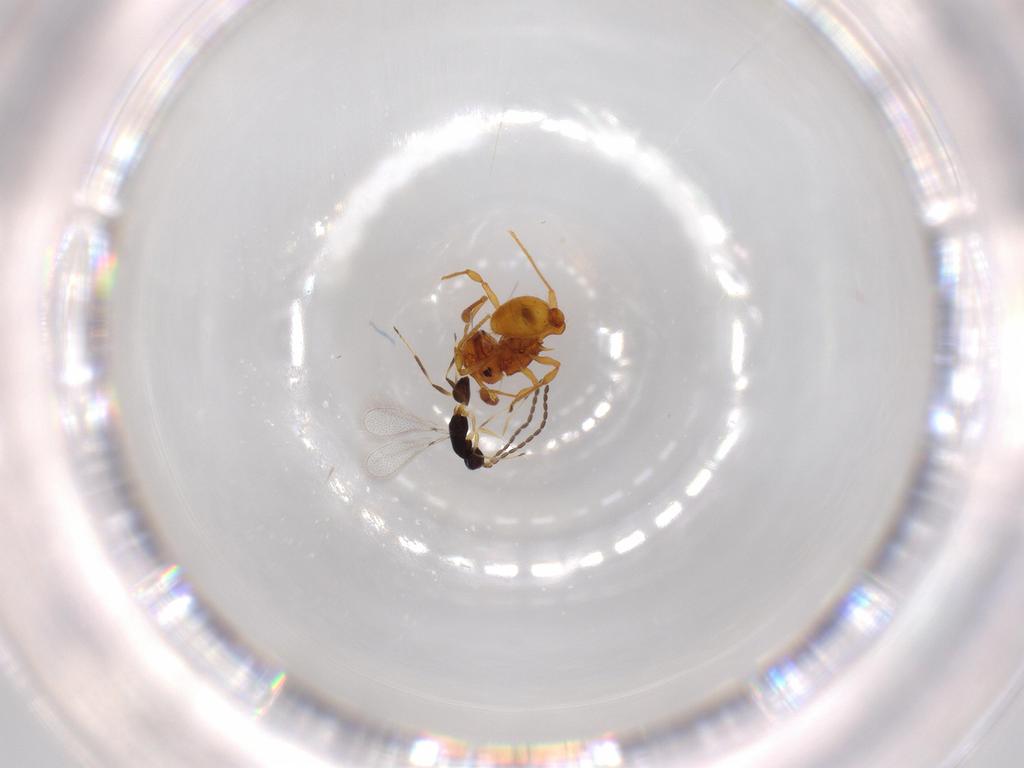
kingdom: Animalia
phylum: Arthropoda
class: Insecta
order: Hymenoptera
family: Formicidae
